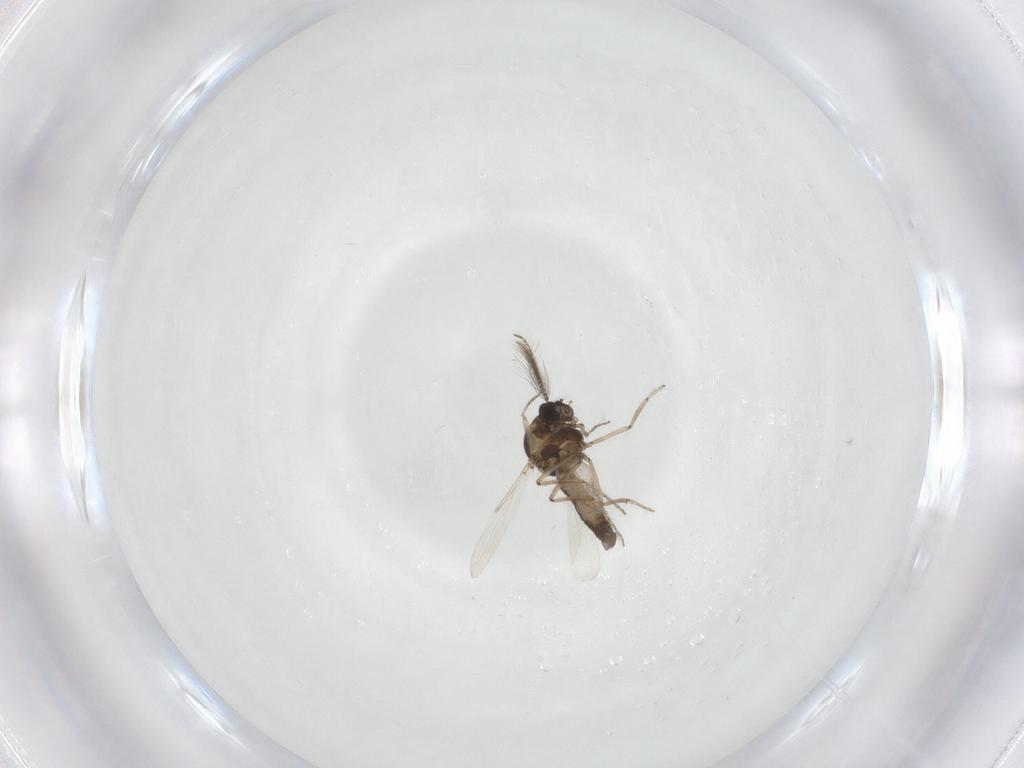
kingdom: Animalia
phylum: Arthropoda
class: Insecta
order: Diptera
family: Ceratopogonidae
